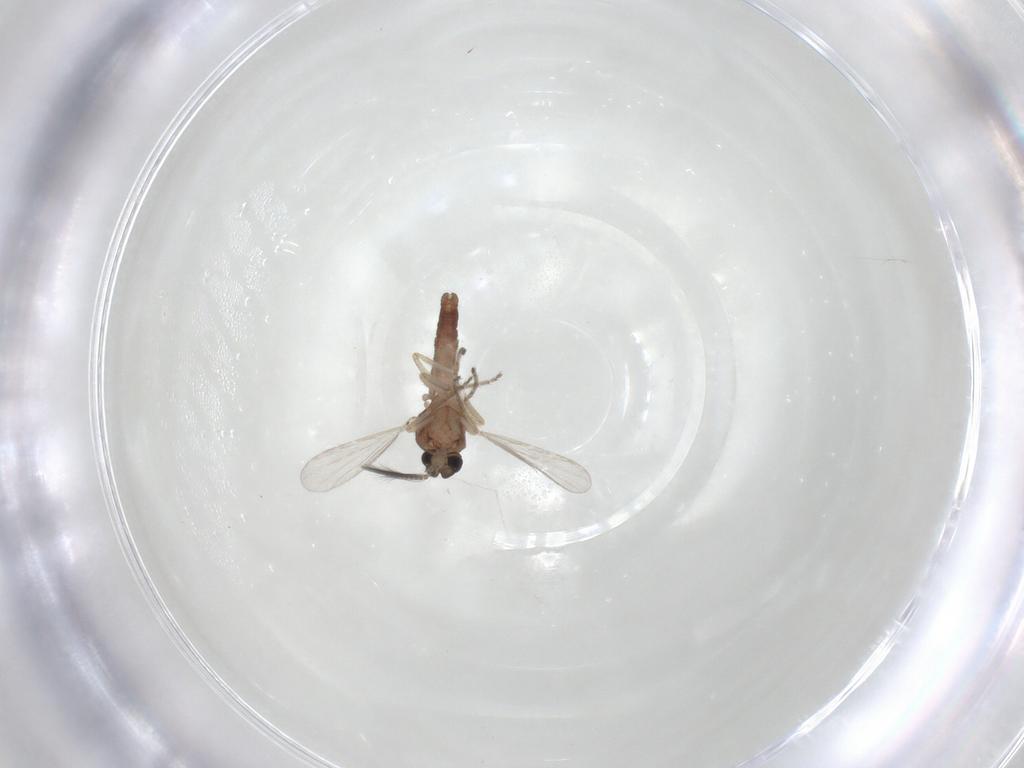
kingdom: Animalia
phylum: Arthropoda
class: Insecta
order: Diptera
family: Ceratopogonidae
